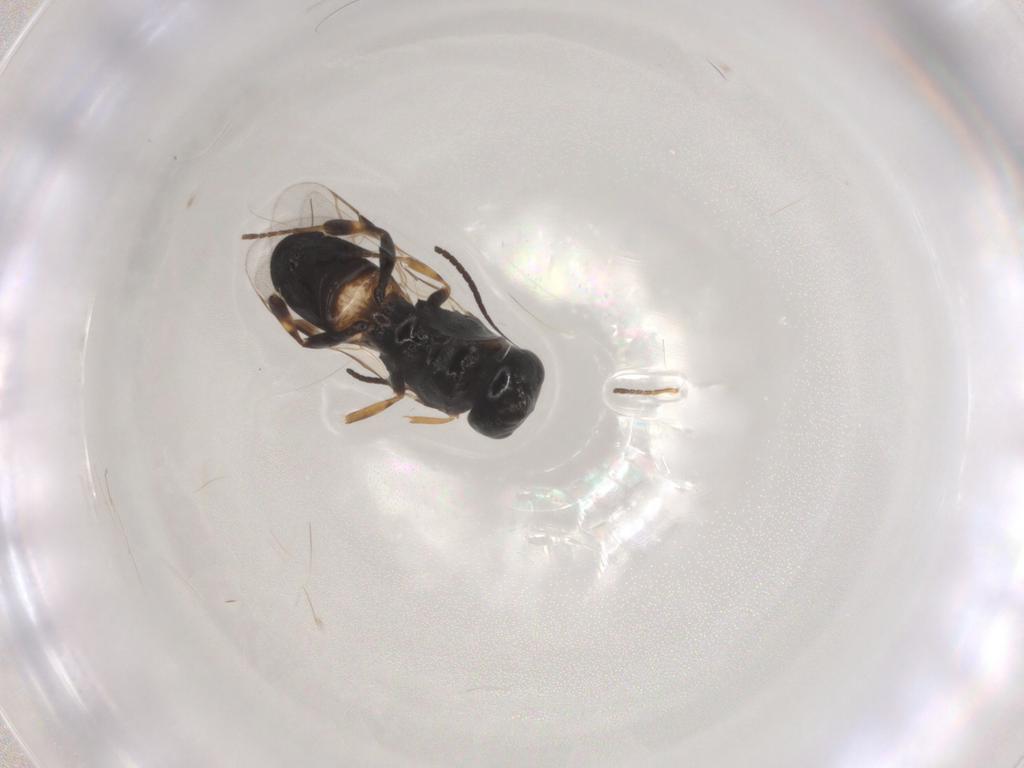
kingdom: Animalia
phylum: Arthropoda
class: Insecta
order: Hymenoptera
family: Braconidae
